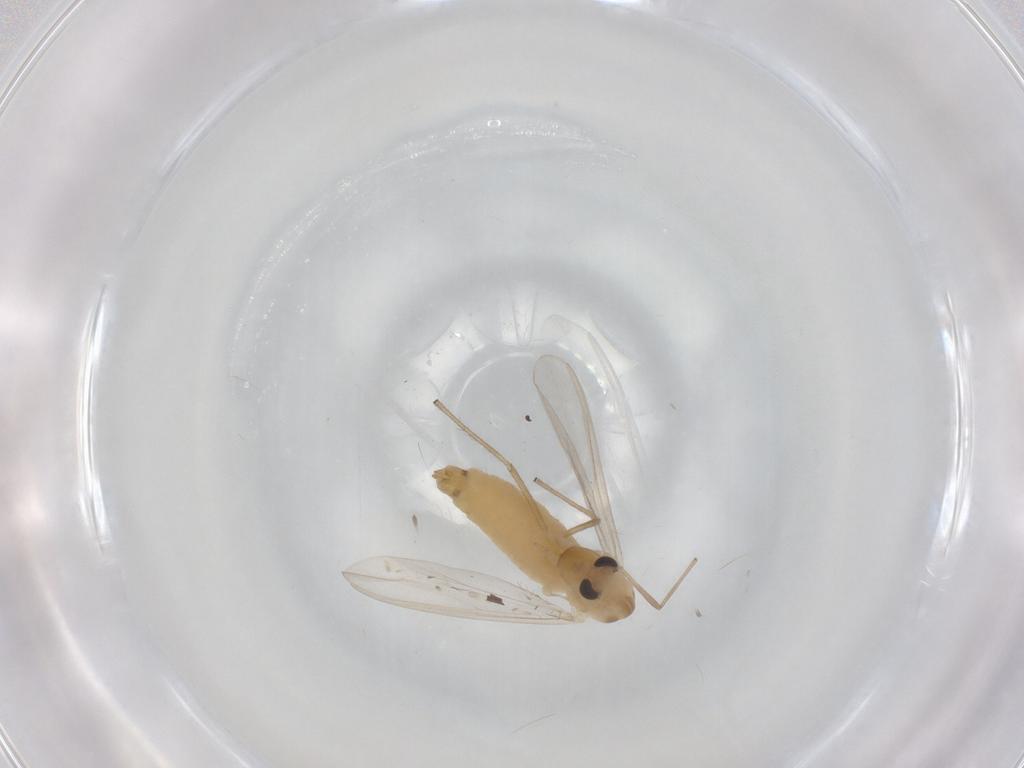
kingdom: Animalia
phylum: Arthropoda
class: Insecta
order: Diptera
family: Chironomidae
